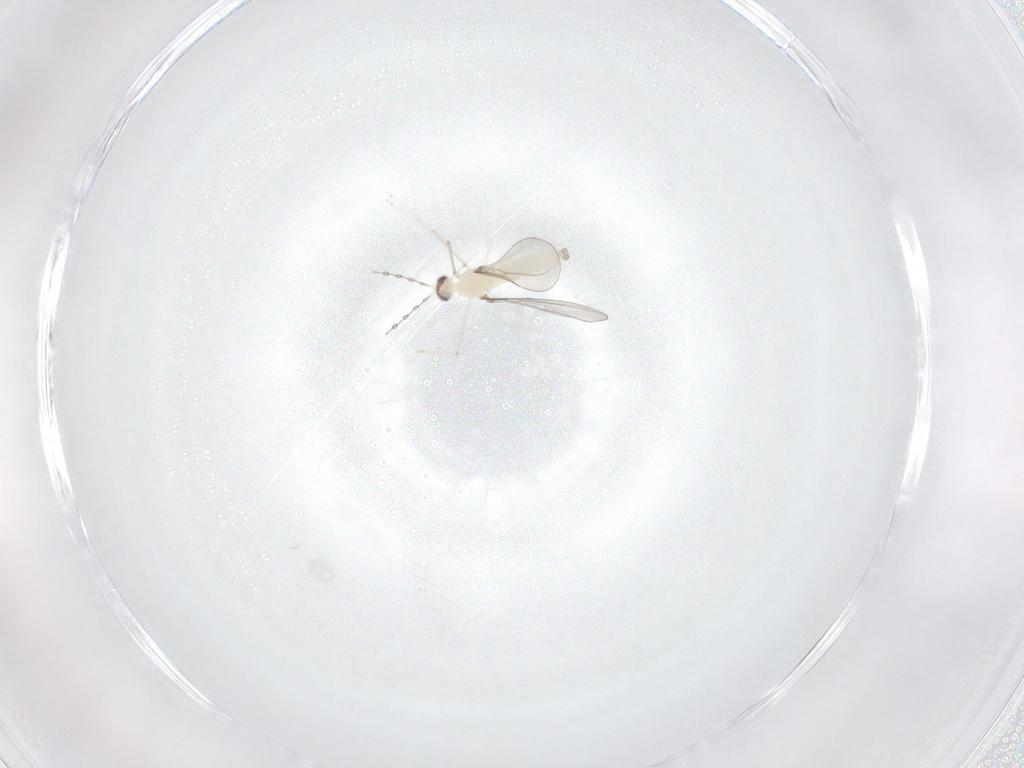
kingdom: Animalia
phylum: Arthropoda
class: Insecta
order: Diptera
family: Cecidomyiidae
